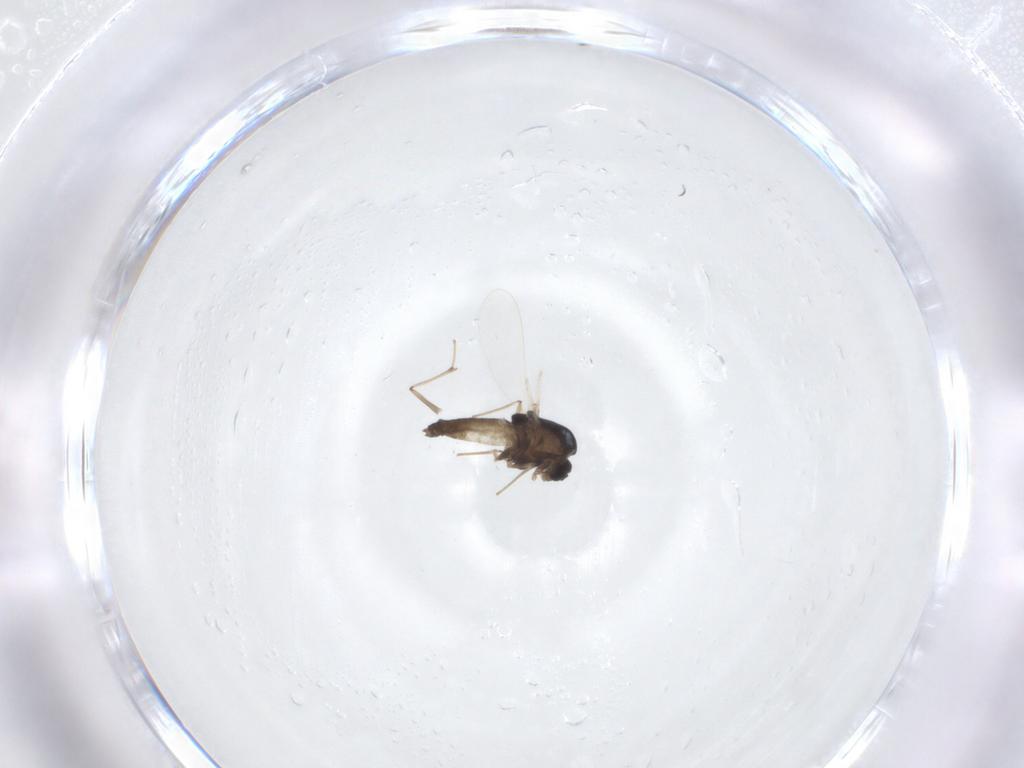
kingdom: Animalia
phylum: Arthropoda
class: Insecta
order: Diptera
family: Chironomidae
